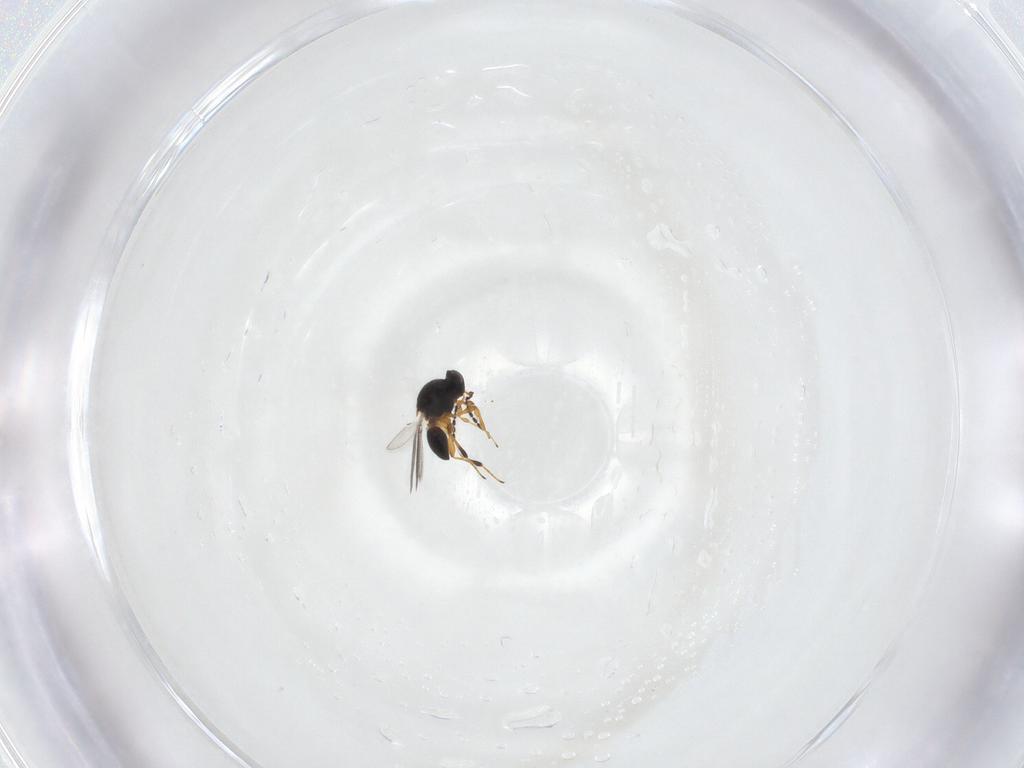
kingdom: Animalia
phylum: Arthropoda
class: Insecta
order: Hymenoptera
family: Platygastridae
